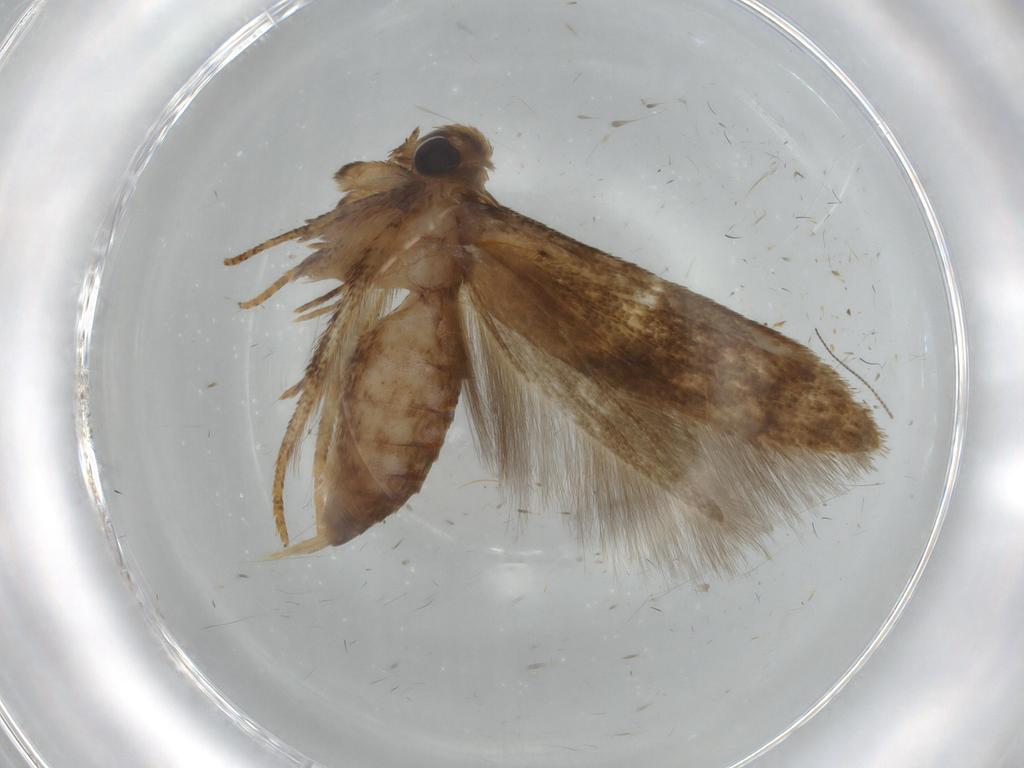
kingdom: Animalia
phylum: Arthropoda
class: Insecta
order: Lepidoptera
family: Blastobasidae
